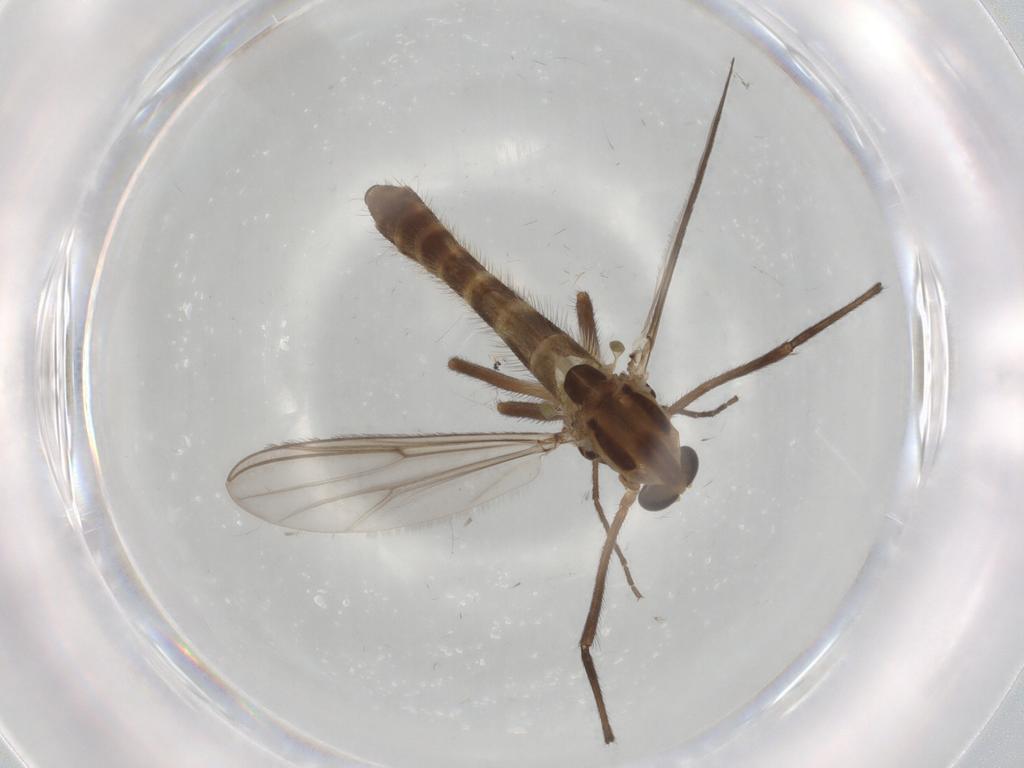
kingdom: Animalia
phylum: Arthropoda
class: Insecta
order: Diptera
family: Chironomidae
